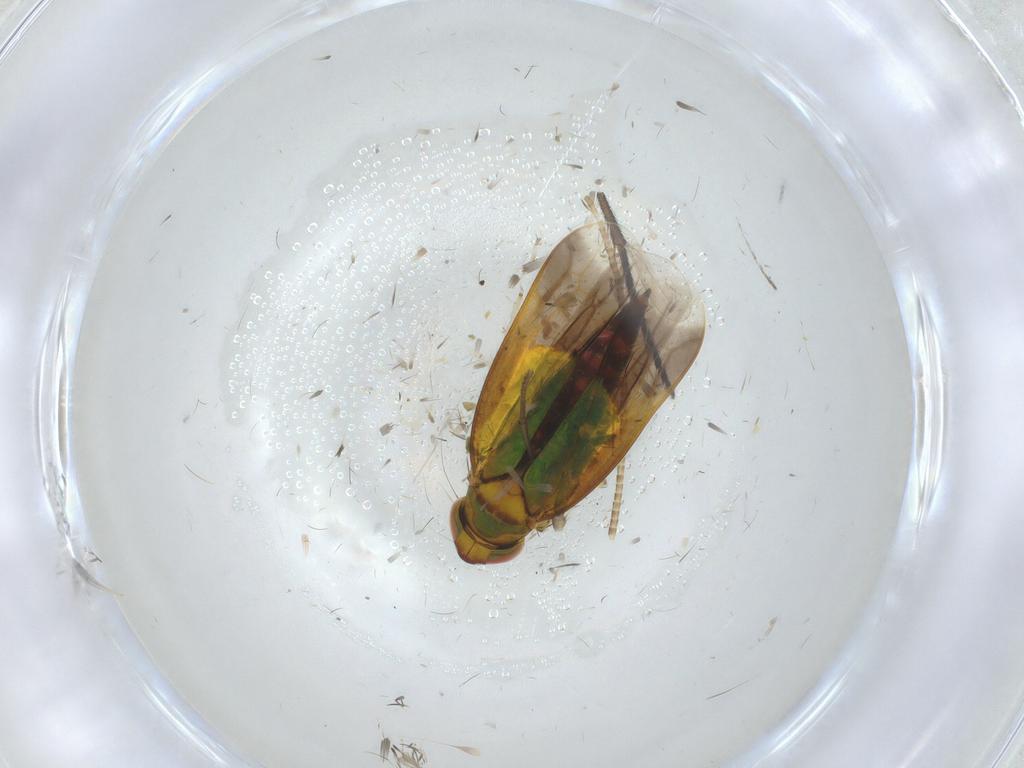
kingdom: Animalia
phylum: Arthropoda
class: Insecta
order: Hemiptera
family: Cicadellidae
